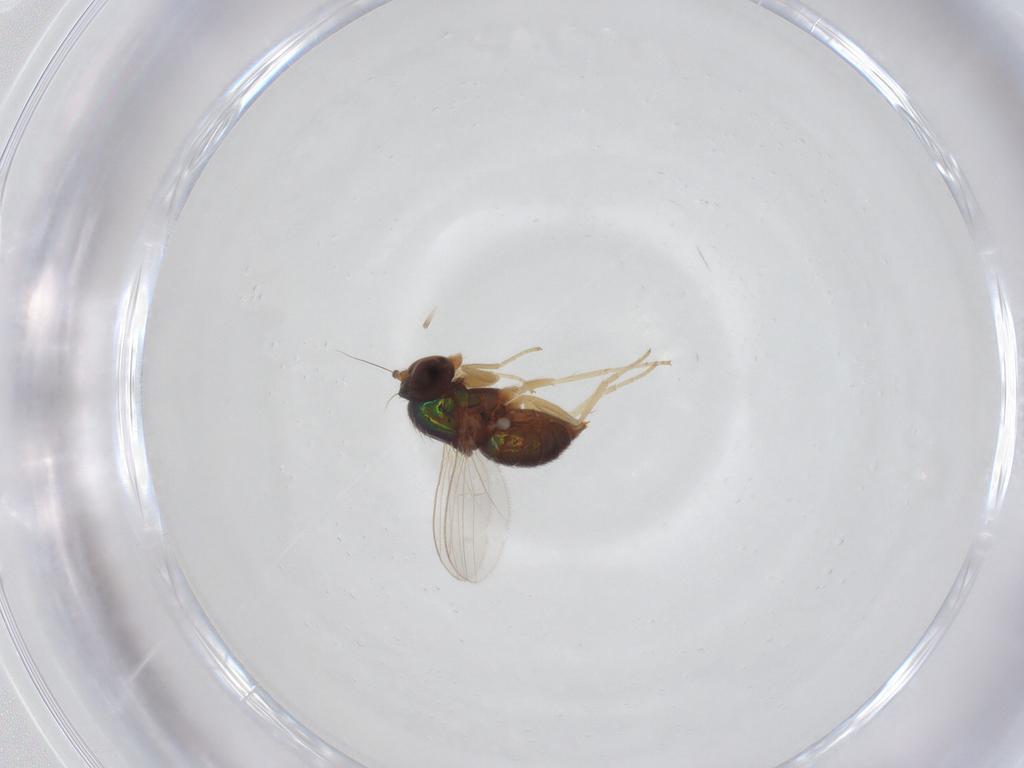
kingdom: Animalia
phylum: Arthropoda
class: Insecta
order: Diptera
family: Dolichopodidae
